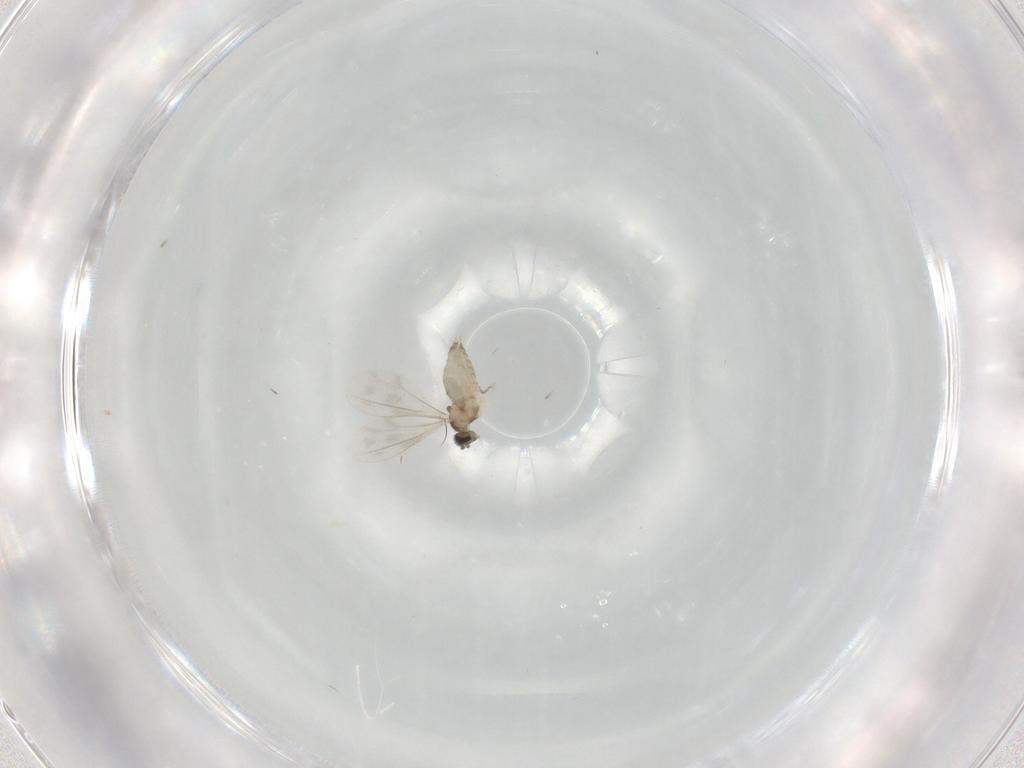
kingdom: Animalia
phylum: Arthropoda
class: Insecta
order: Diptera
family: Cecidomyiidae
